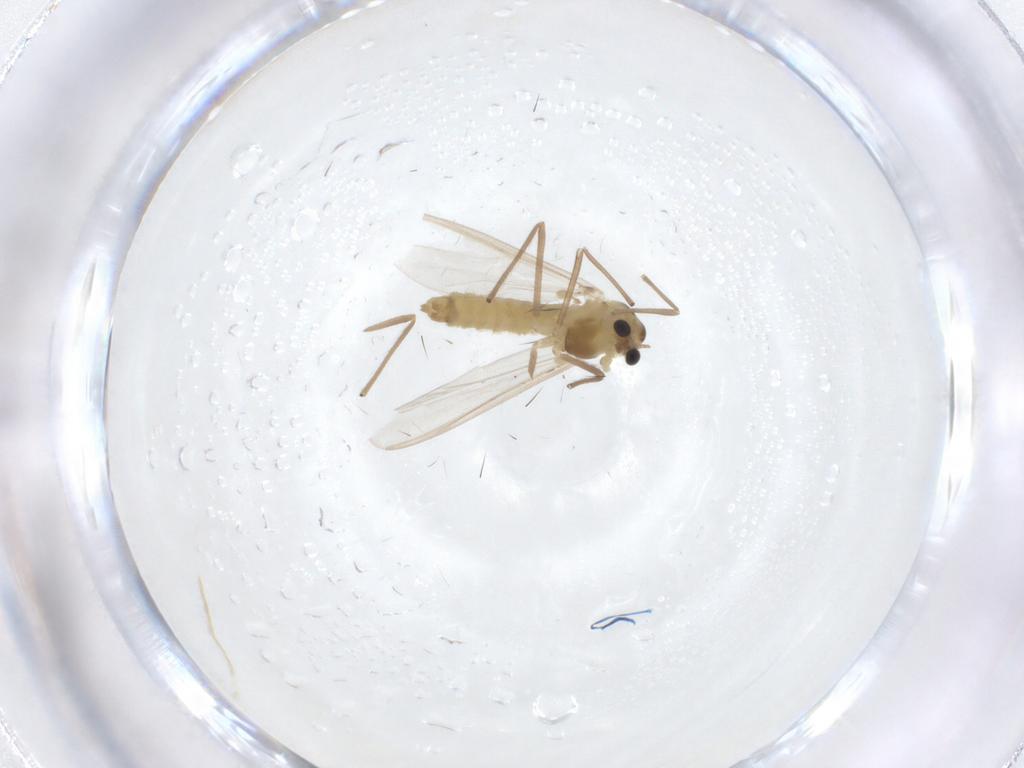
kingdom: Animalia
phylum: Arthropoda
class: Insecta
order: Diptera
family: Chironomidae
